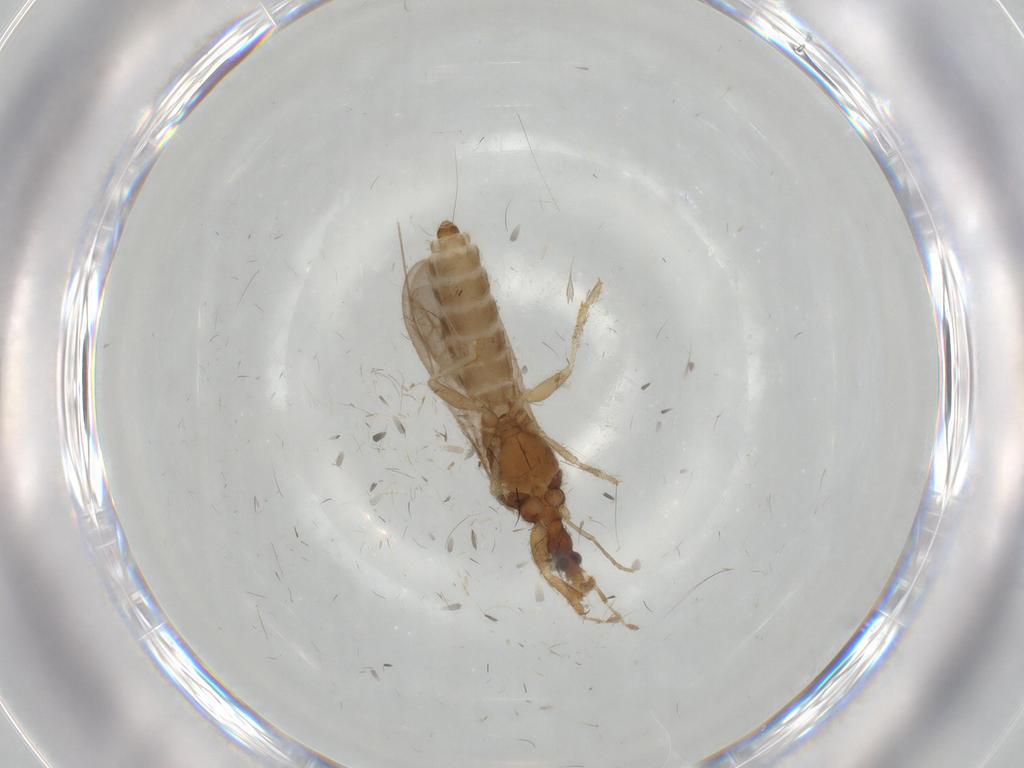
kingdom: Animalia
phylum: Arthropoda
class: Insecta
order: Hemiptera
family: Enicocephalidae
